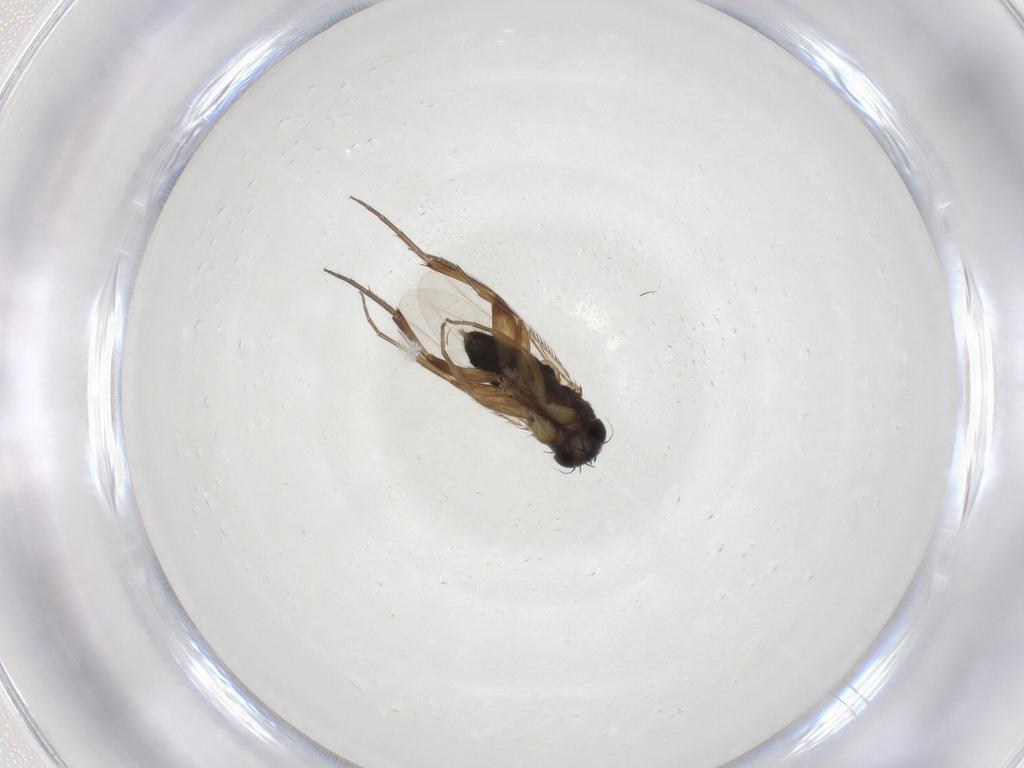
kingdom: Animalia
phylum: Arthropoda
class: Insecta
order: Diptera
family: Phoridae
